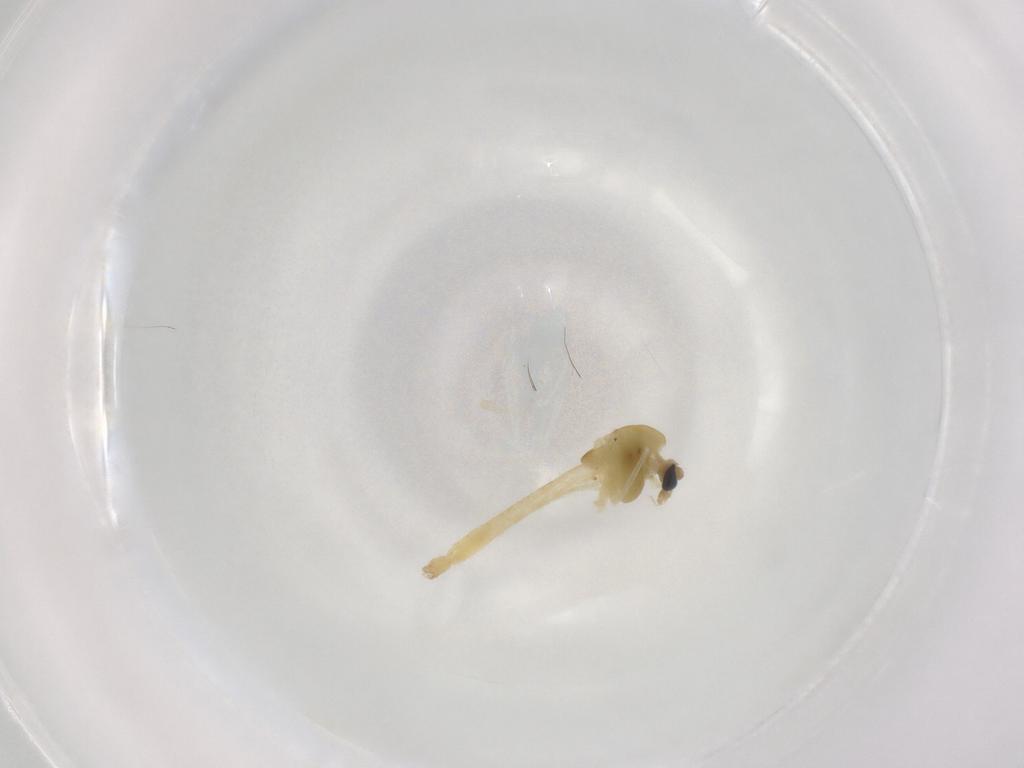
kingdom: Animalia
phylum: Arthropoda
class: Insecta
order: Diptera
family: Chironomidae
